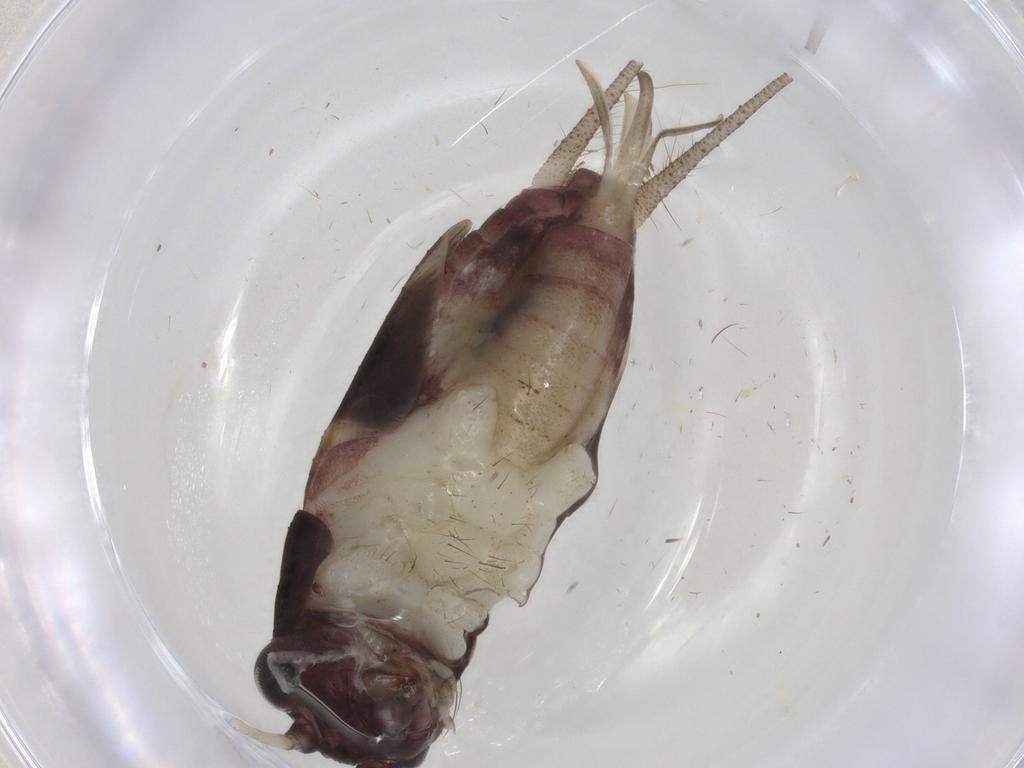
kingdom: Animalia
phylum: Arthropoda
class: Insecta
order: Orthoptera
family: Trigonidiidae
